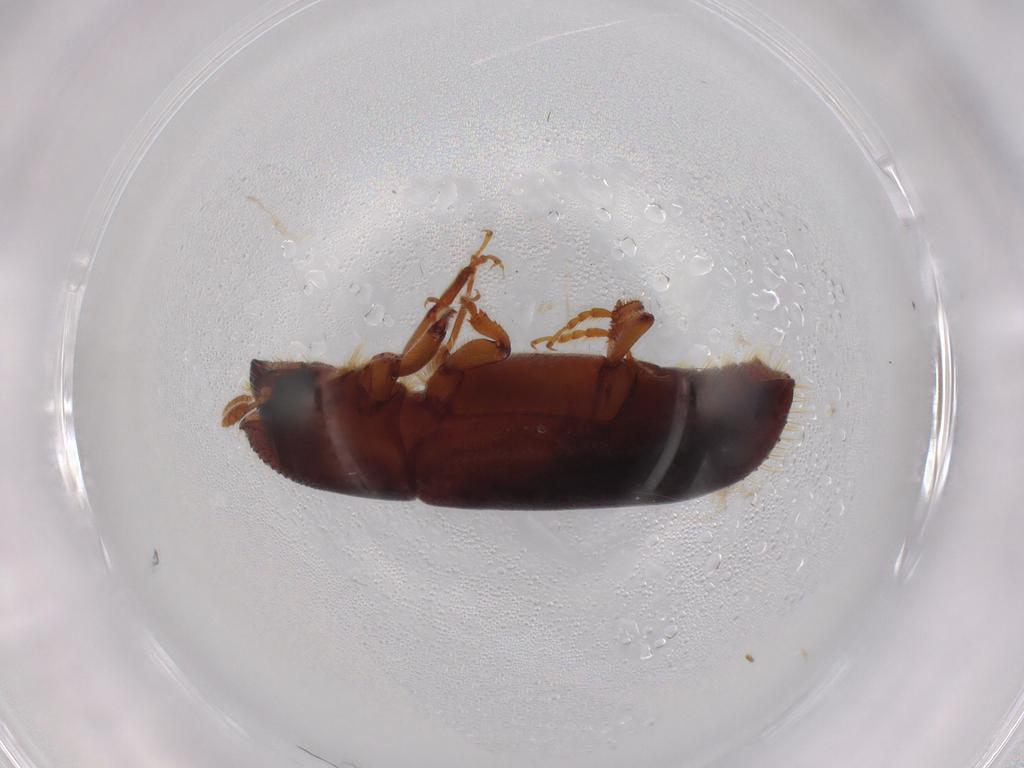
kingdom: Animalia
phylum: Arthropoda
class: Insecta
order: Coleoptera
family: Curculionidae
